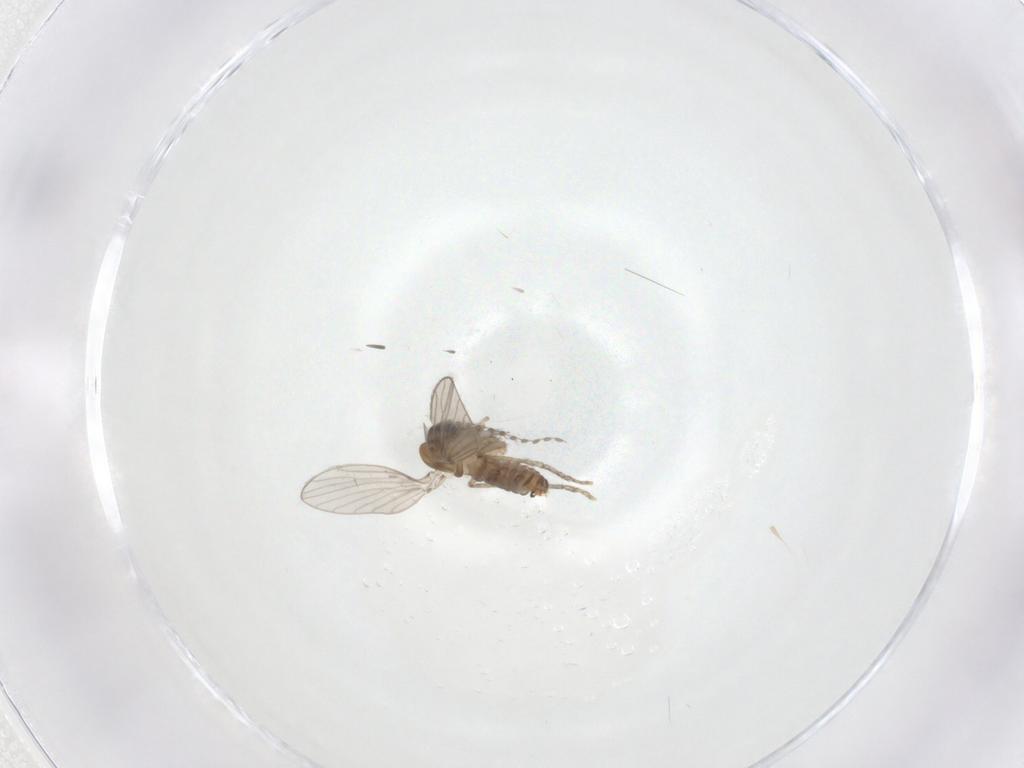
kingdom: Animalia
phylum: Arthropoda
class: Insecta
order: Diptera
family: Psychodidae
